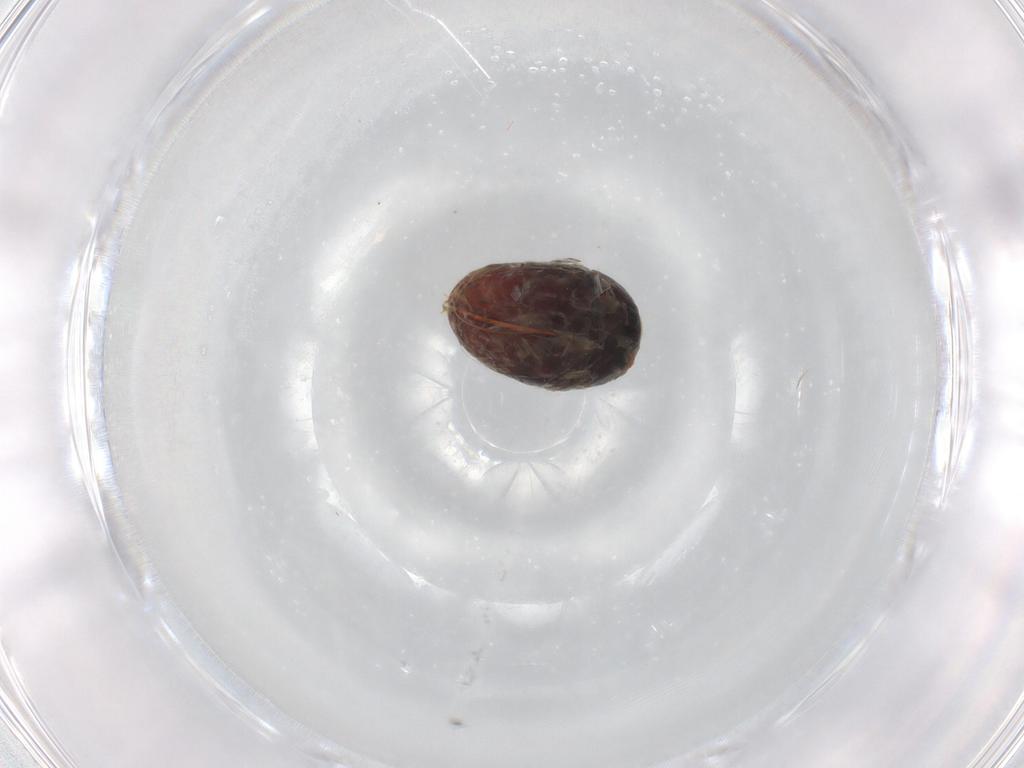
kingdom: Animalia
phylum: Arthropoda
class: Insecta
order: Coleoptera
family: Phalacridae
